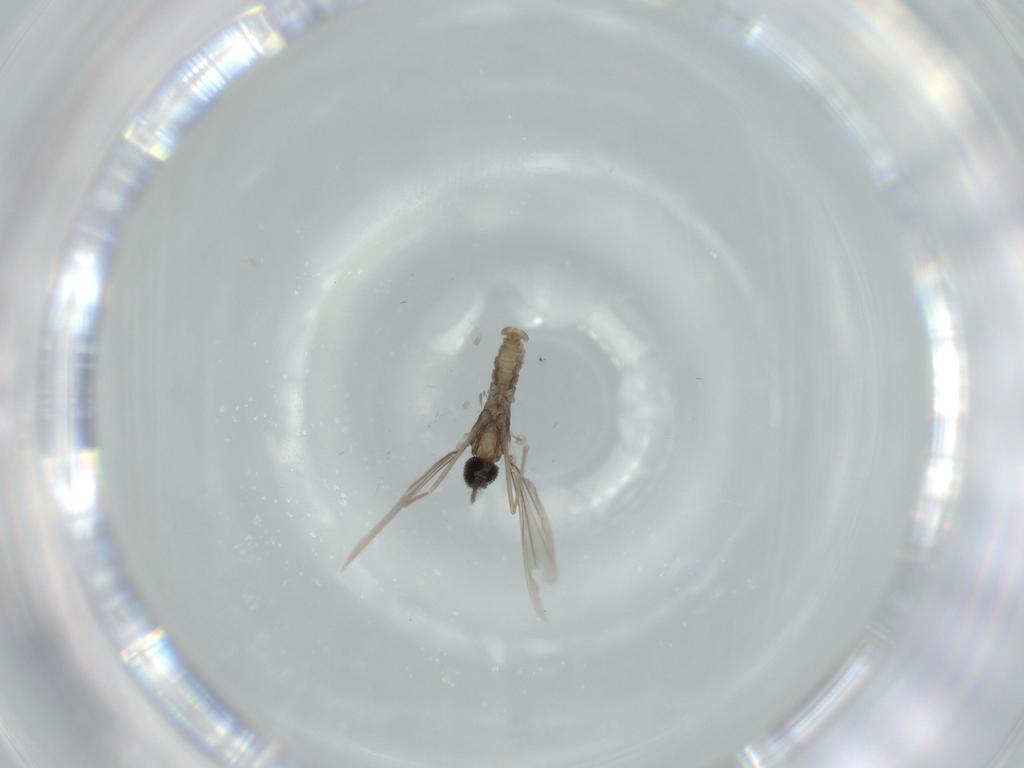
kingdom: Animalia
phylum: Arthropoda
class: Insecta
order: Diptera
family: Cecidomyiidae
